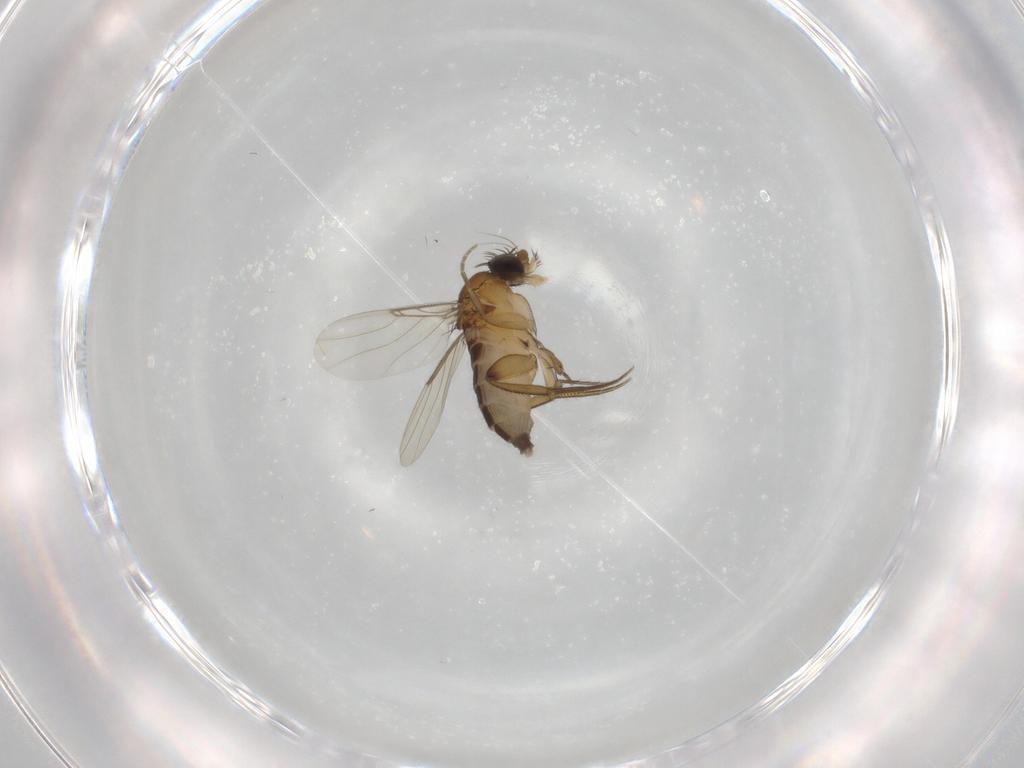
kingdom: Animalia
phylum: Arthropoda
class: Insecta
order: Diptera
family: Phoridae
